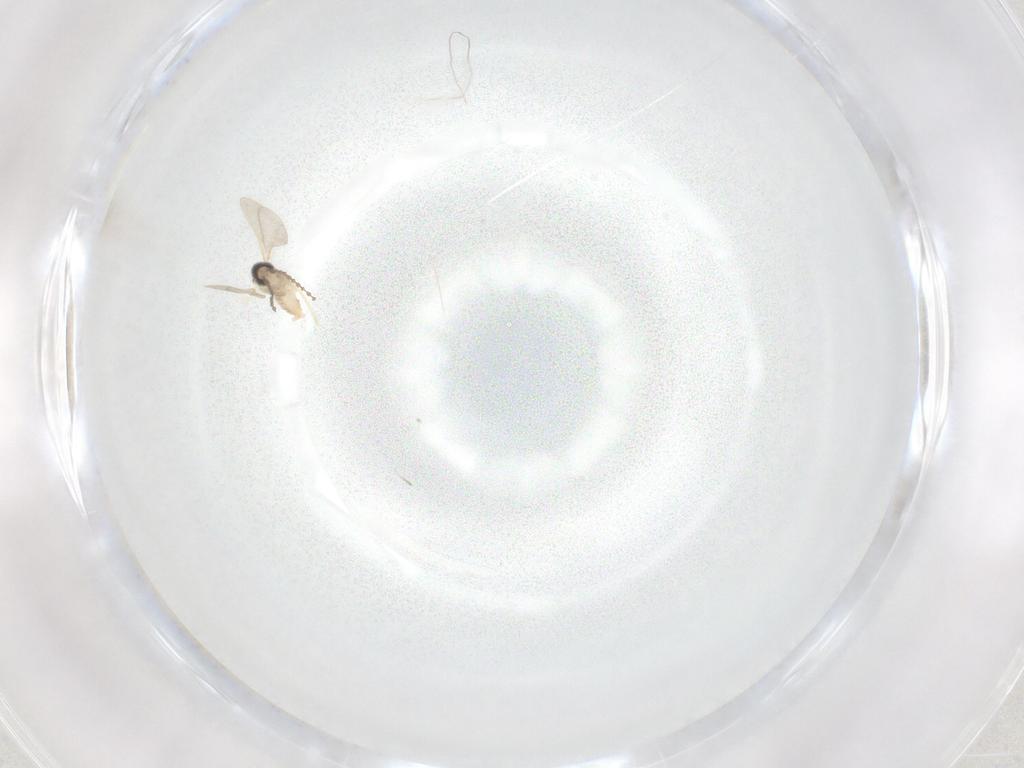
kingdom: Animalia
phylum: Arthropoda
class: Insecta
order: Diptera
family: Cecidomyiidae
